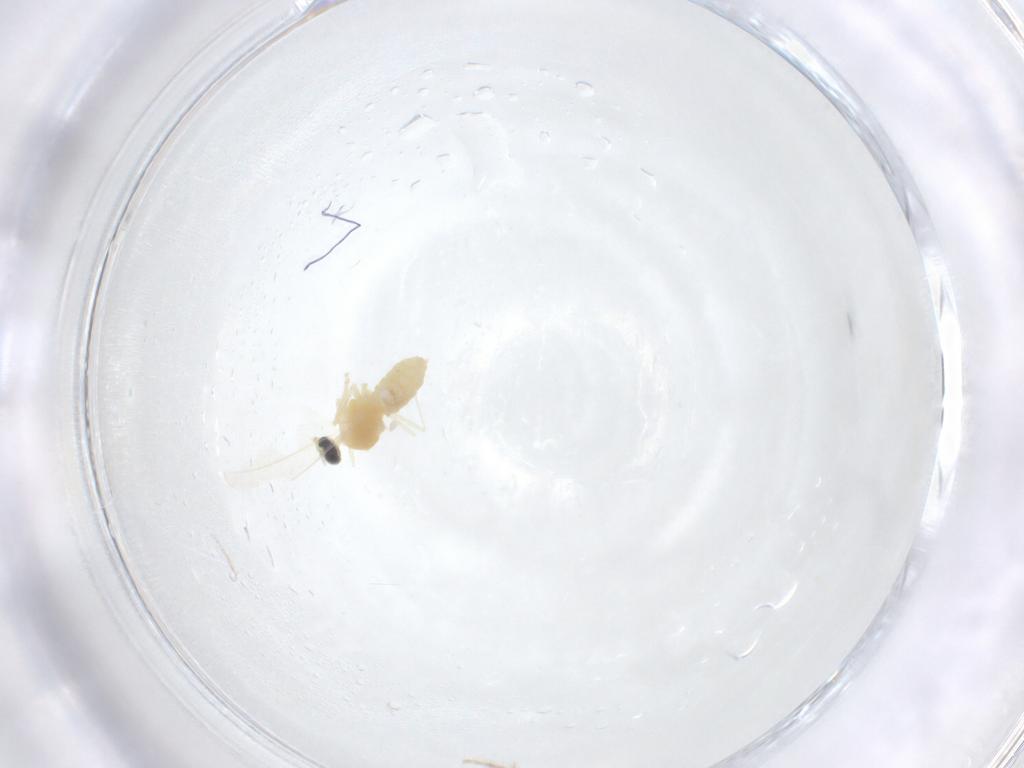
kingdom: Animalia
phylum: Arthropoda
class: Insecta
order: Diptera
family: Cecidomyiidae
